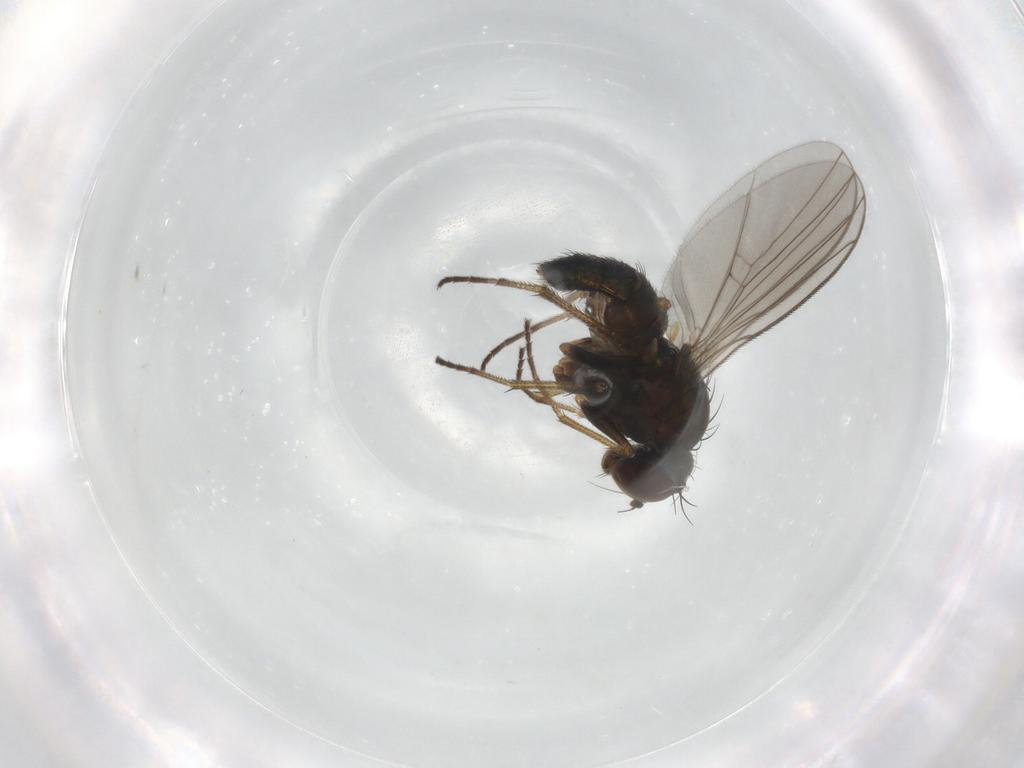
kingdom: Animalia
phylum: Arthropoda
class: Insecta
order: Diptera
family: Dolichopodidae
